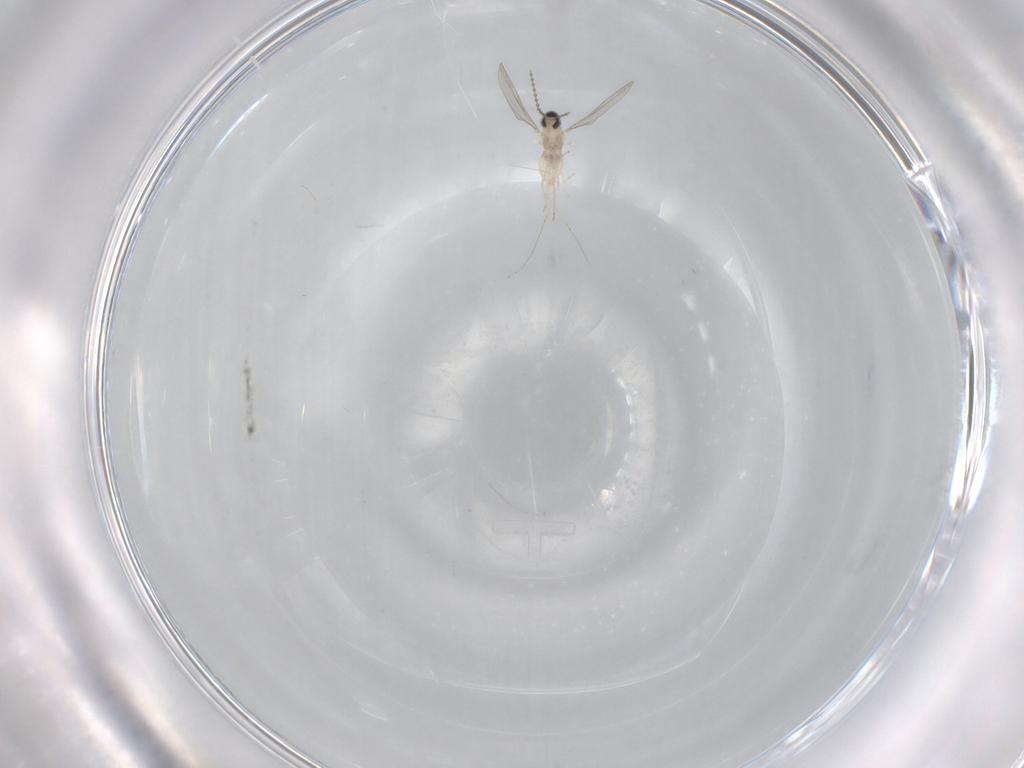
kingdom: Animalia
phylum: Arthropoda
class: Insecta
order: Diptera
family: Cecidomyiidae
